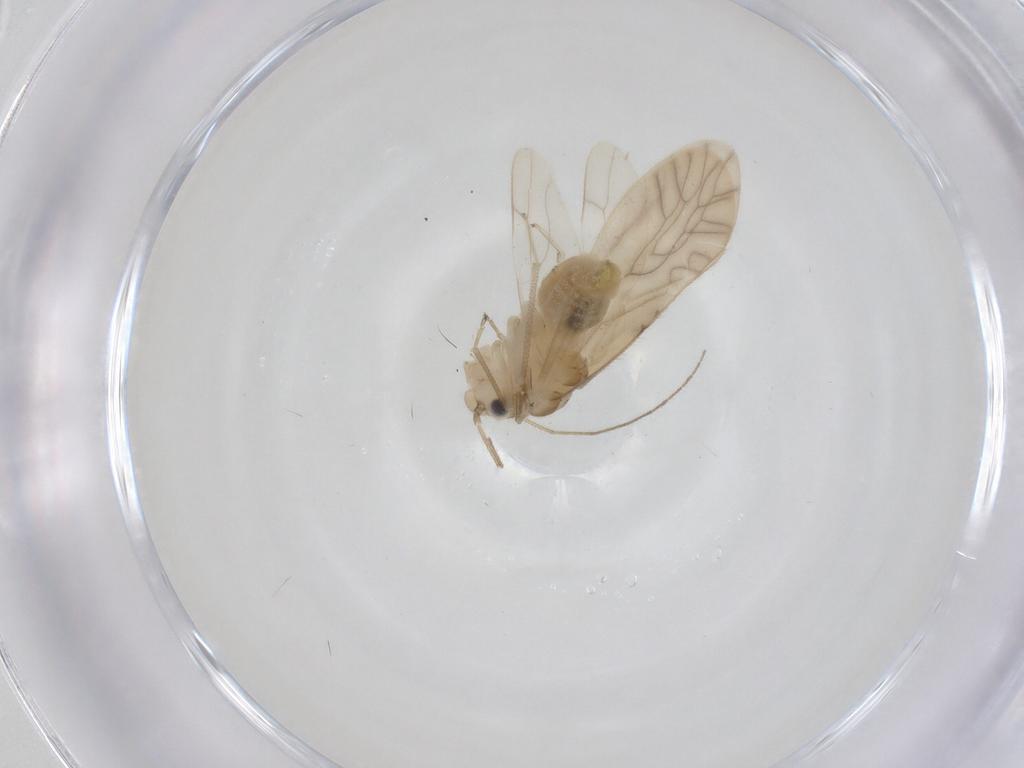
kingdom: Animalia
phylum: Arthropoda
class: Insecta
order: Psocodea
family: Caeciliusidae
